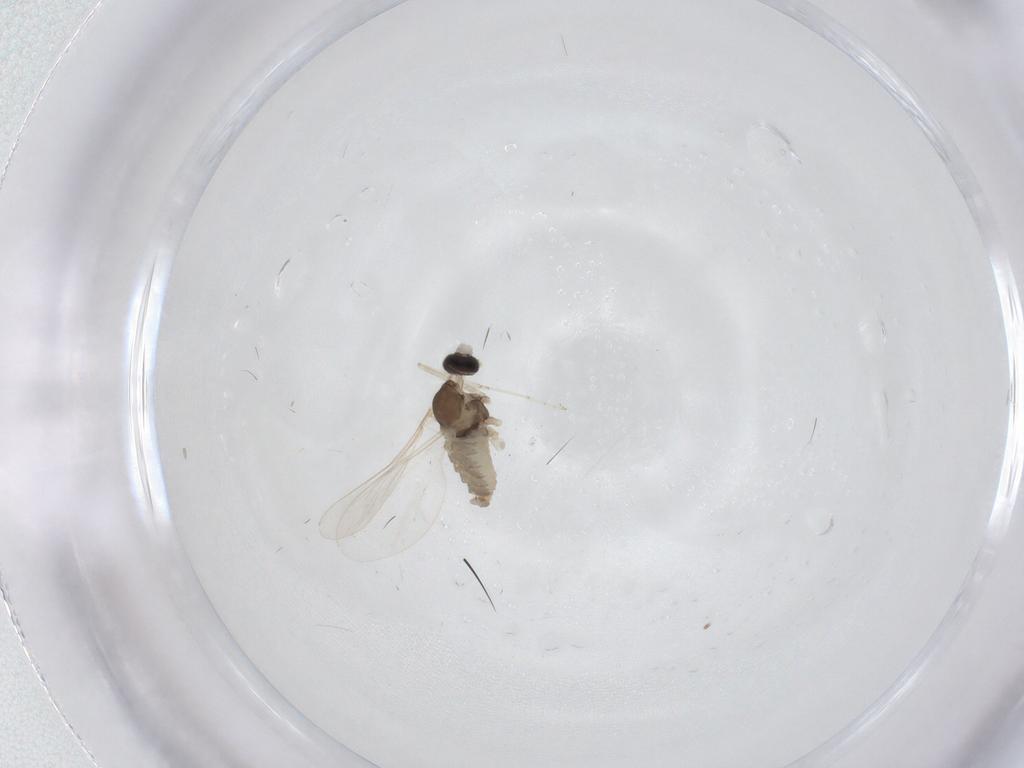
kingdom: Animalia
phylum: Arthropoda
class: Insecta
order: Diptera
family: Cecidomyiidae
